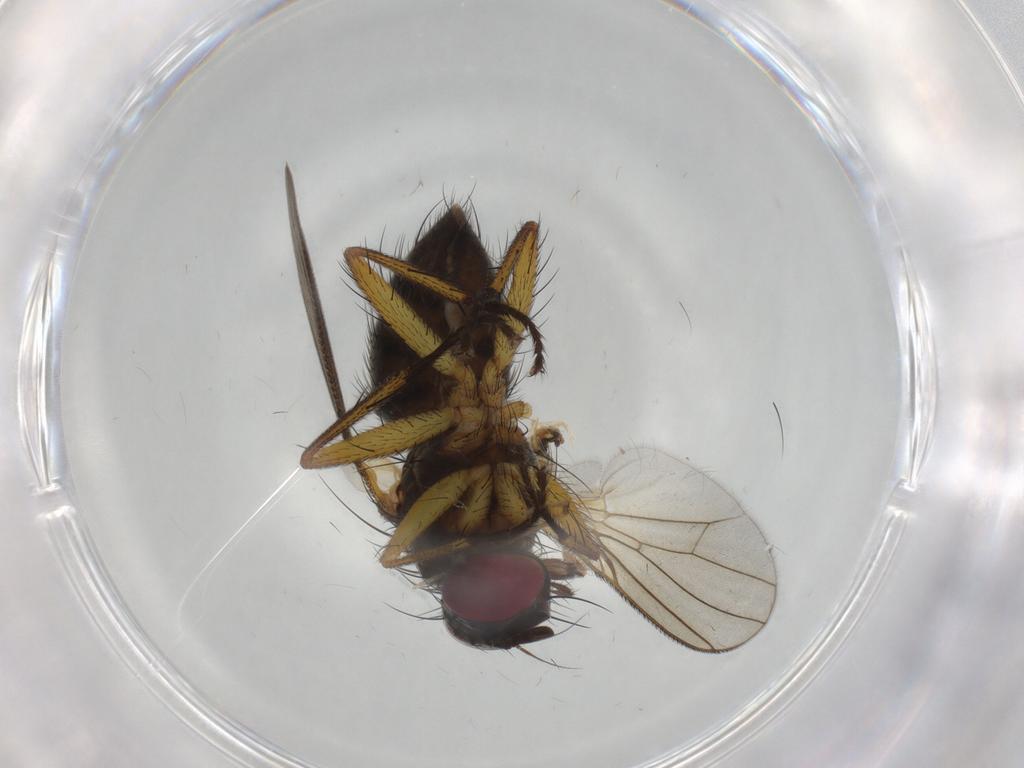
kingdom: Animalia
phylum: Arthropoda
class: Insecta
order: Diptera
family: Muscidae
